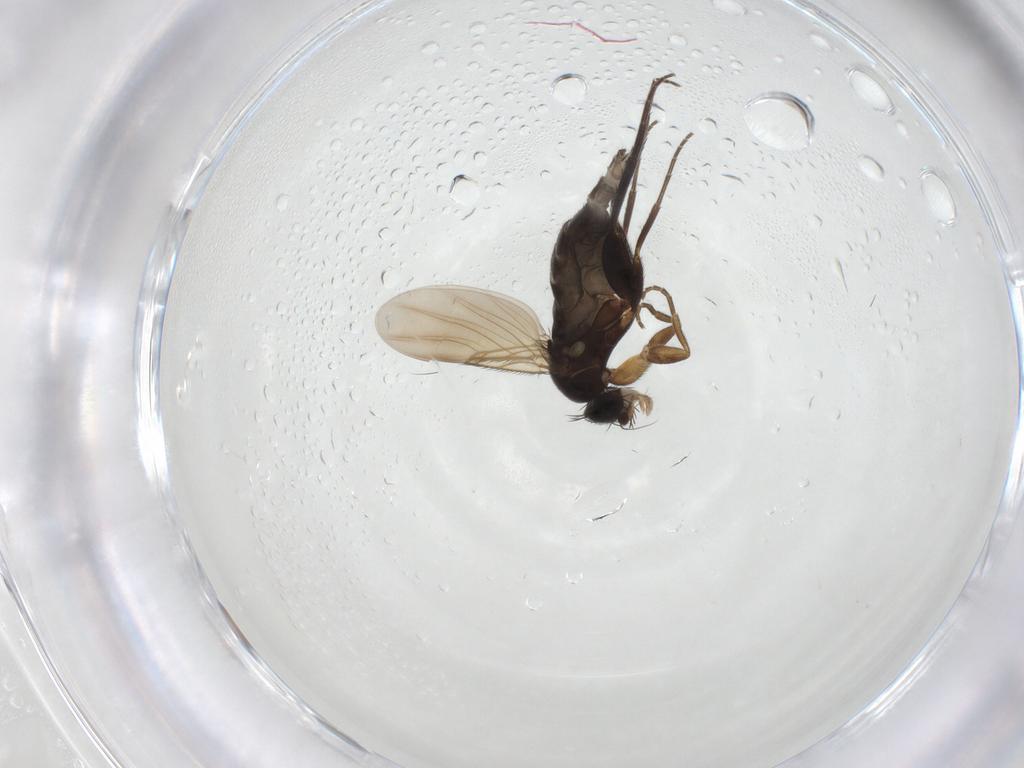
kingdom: Animalia
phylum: Arthropoda
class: Insecta
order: Diptera
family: Phoridae
